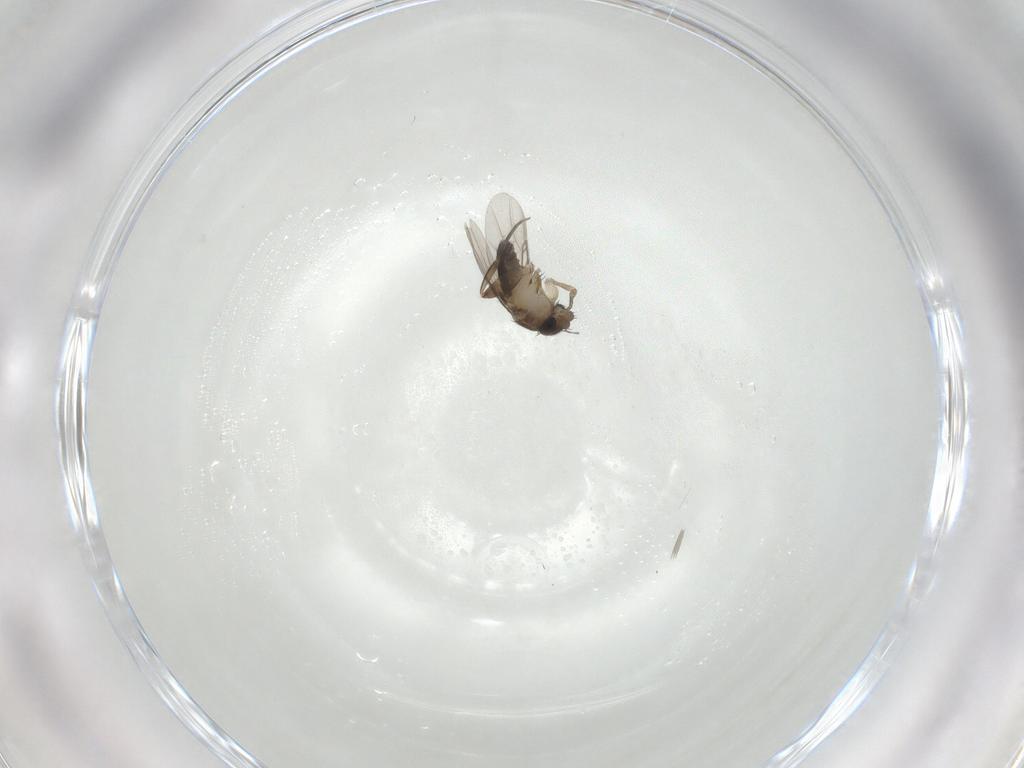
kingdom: Animalia
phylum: Arthropoda
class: Insecta
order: Diptera
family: Phoridae
